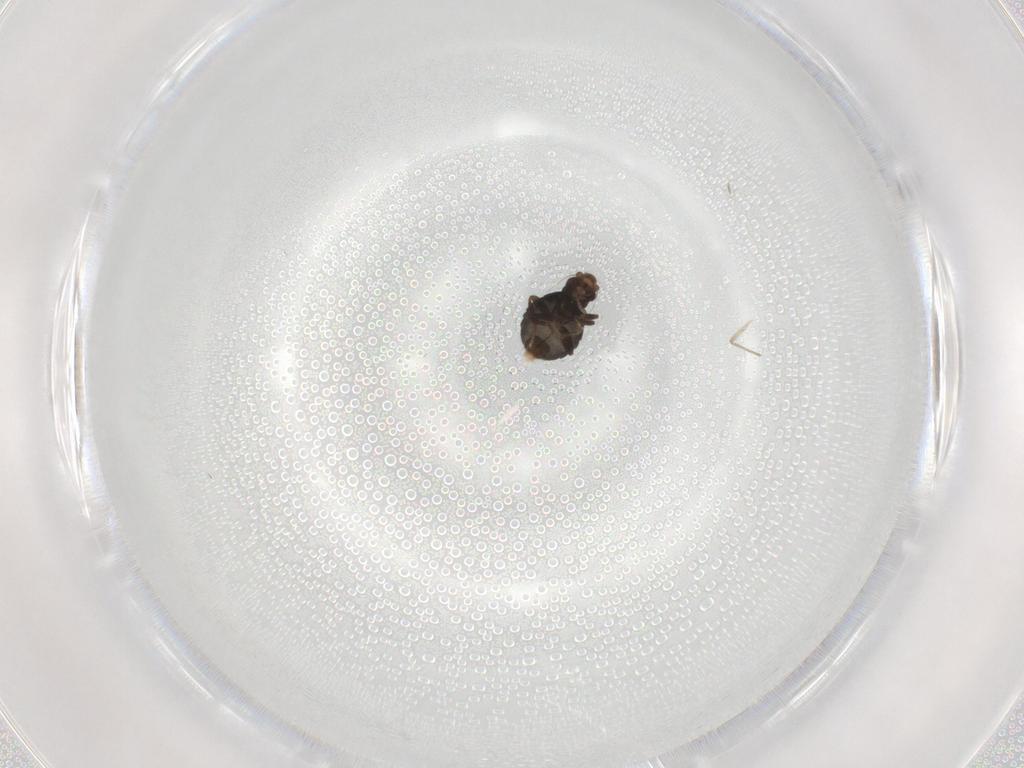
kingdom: Animalia
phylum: Arthropoda
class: Insecta
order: Diptera
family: Phoridae
